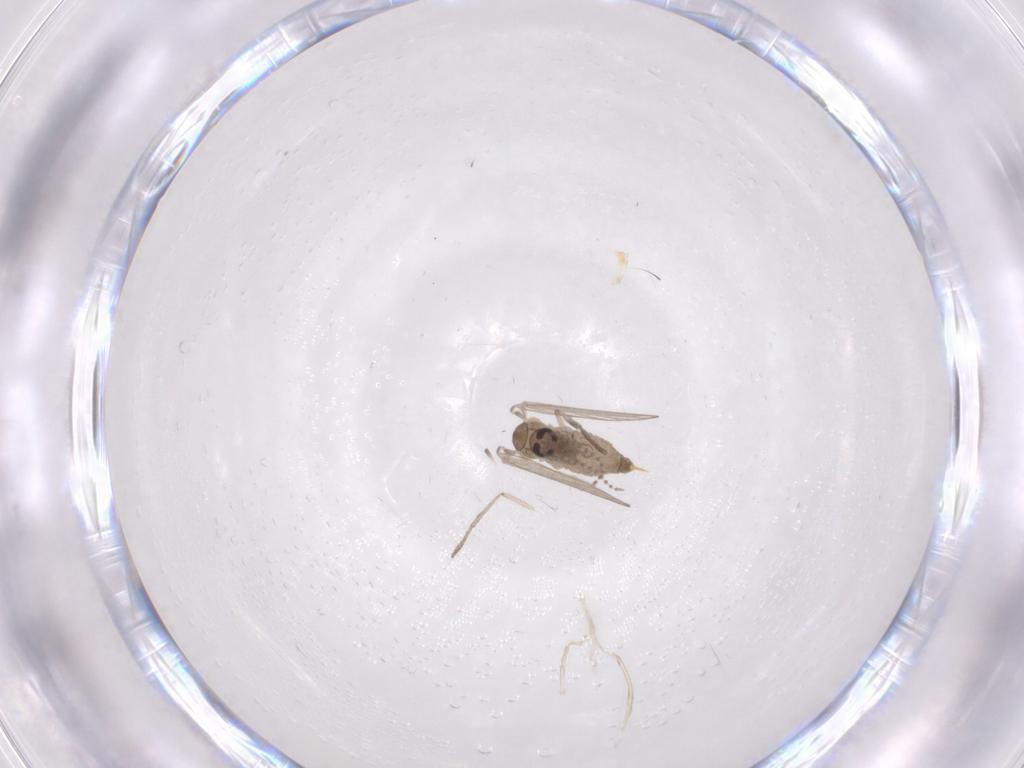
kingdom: Animalia
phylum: Arthropoda
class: Insecta
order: Diptera
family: Psychodidae
